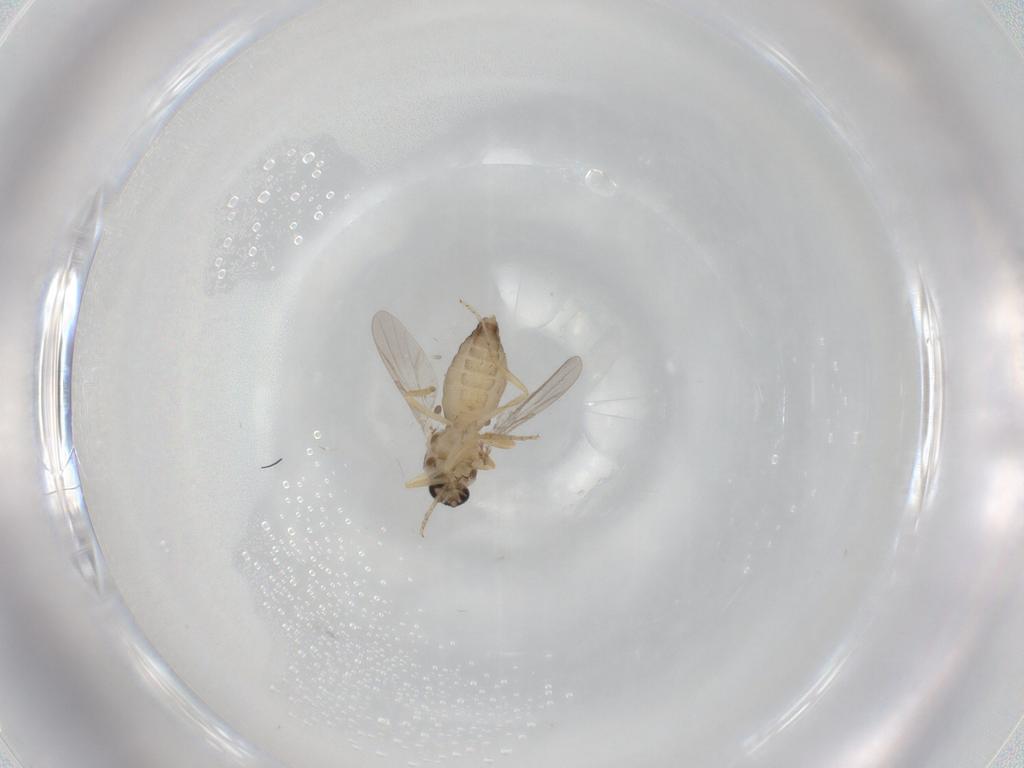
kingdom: Animalia
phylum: Arthropoda
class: Insecta
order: Diptera
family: Ceratopogonidae
